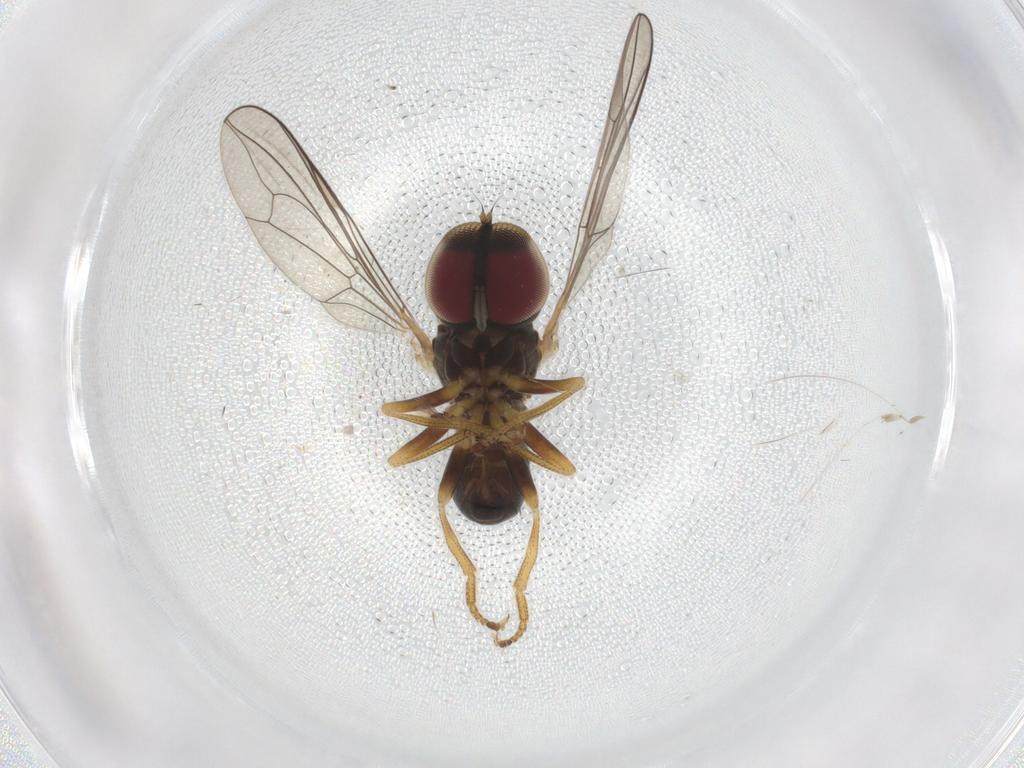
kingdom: Animalia
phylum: Arthropoda
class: Insecta
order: Diptera
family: Pipunculidae
